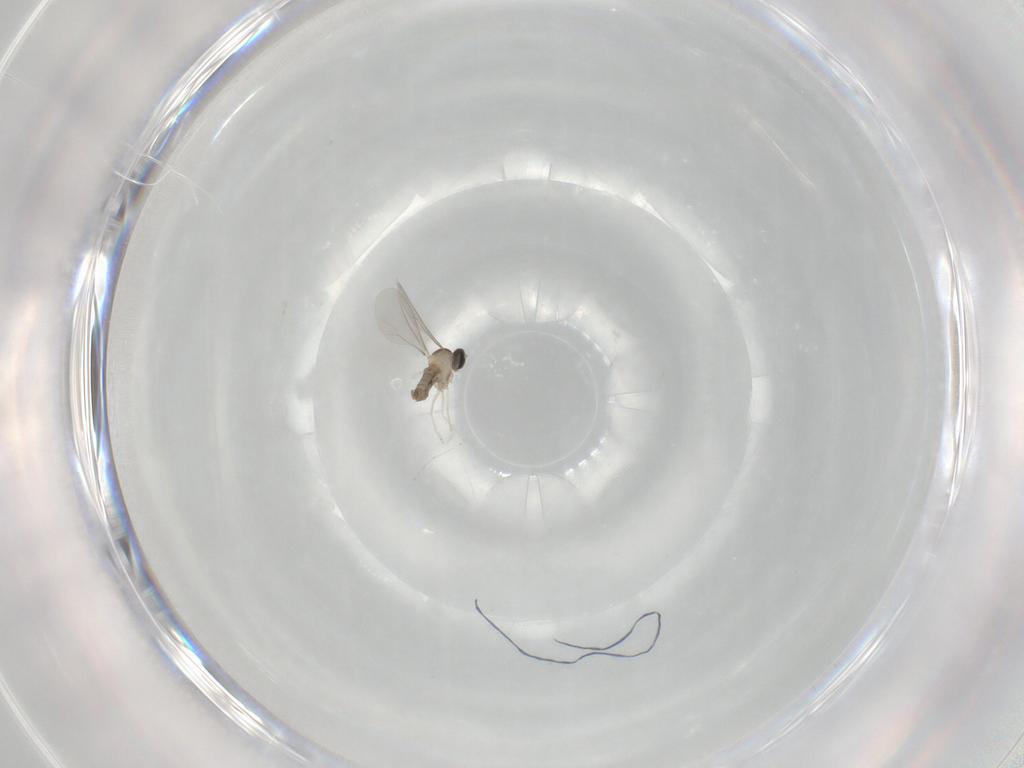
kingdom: Animalia
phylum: Arthropoda
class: Insecta
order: Diptera
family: Cecidomyiidae
